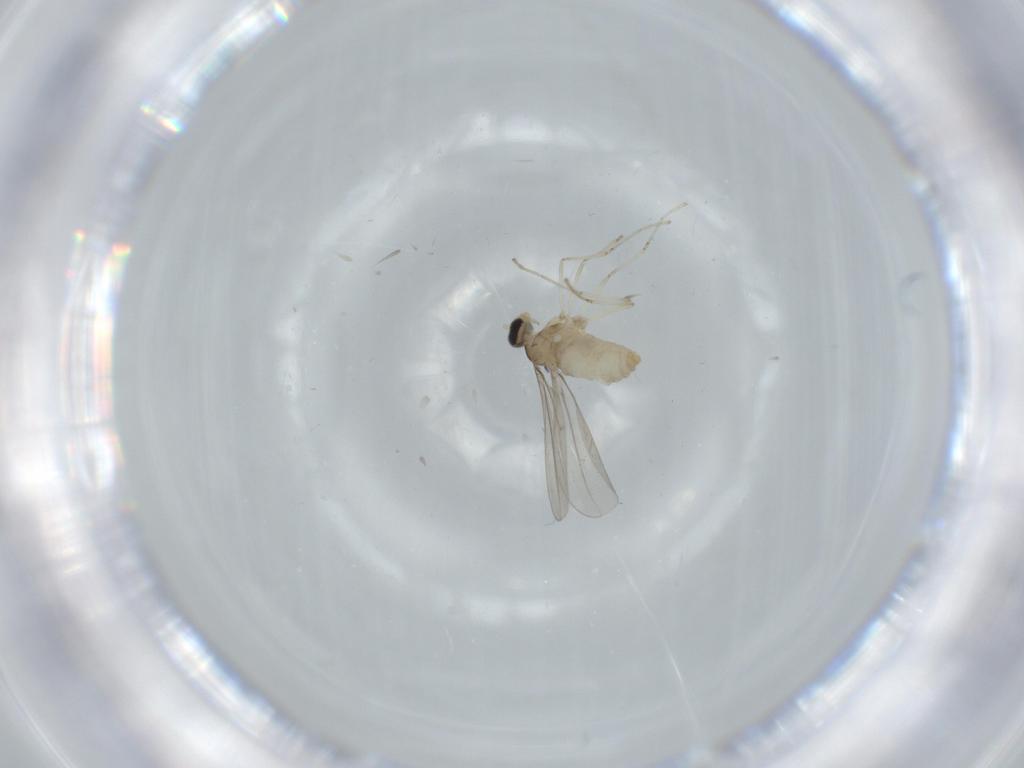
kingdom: Animalia
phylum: Arthropoda
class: Insecta
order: Diptera
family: Cecidomyiidae
